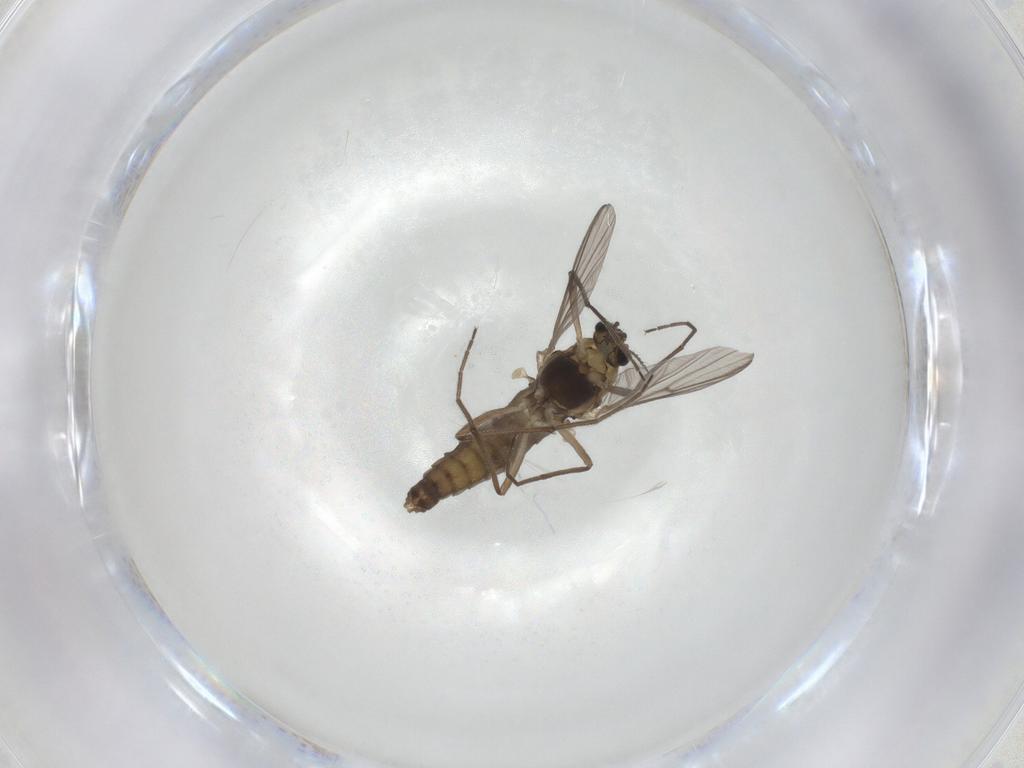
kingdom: Animalia
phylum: Arthropoda
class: Insecta
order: Diptera
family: Chironomidae
